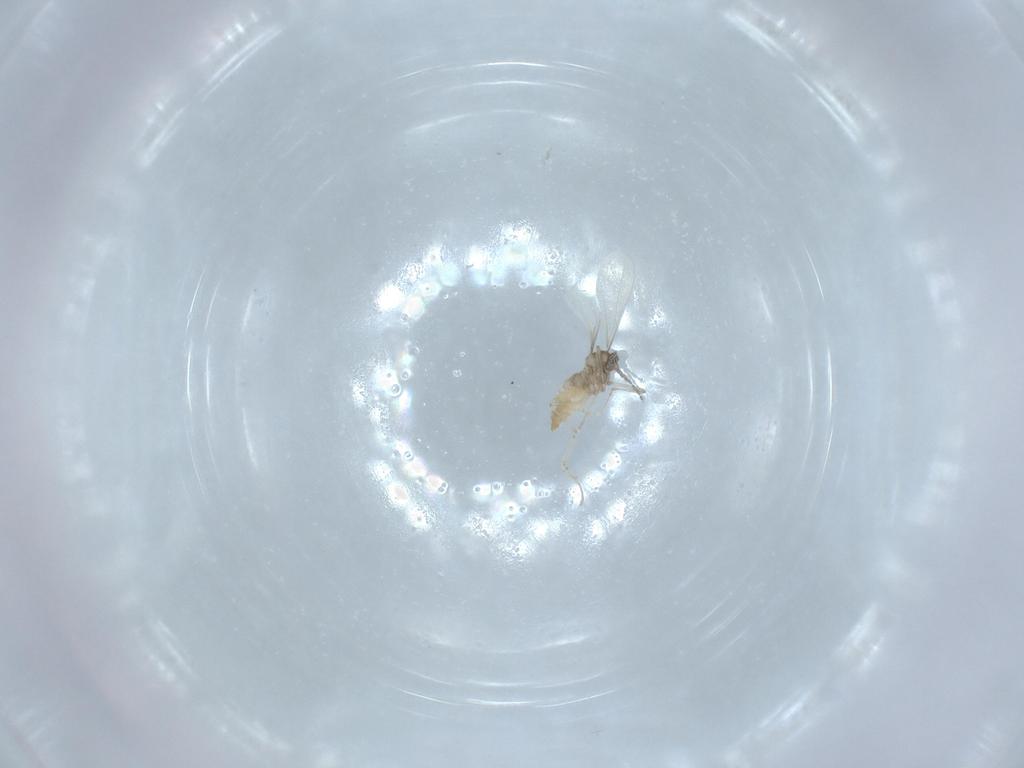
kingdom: Animalia
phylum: Arthropoda
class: Insecta
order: Diptera
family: Cecidomyiidae
